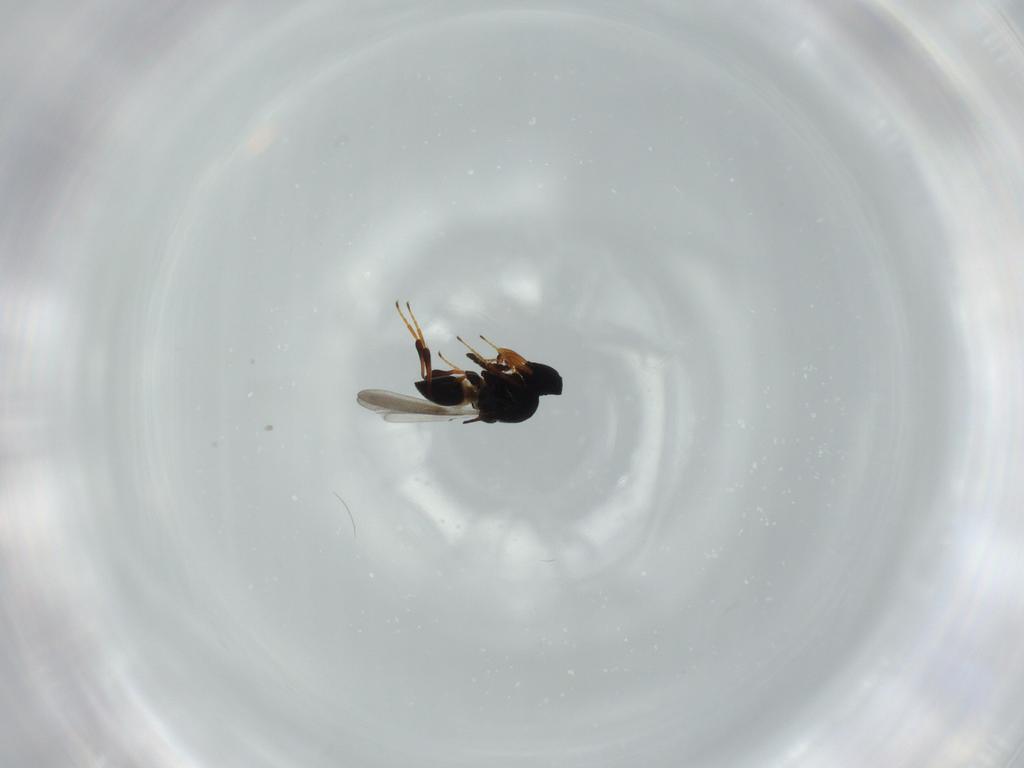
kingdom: Animalia
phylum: Arthropoda
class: Insecta
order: Hymenoptera
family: Platygastridae
